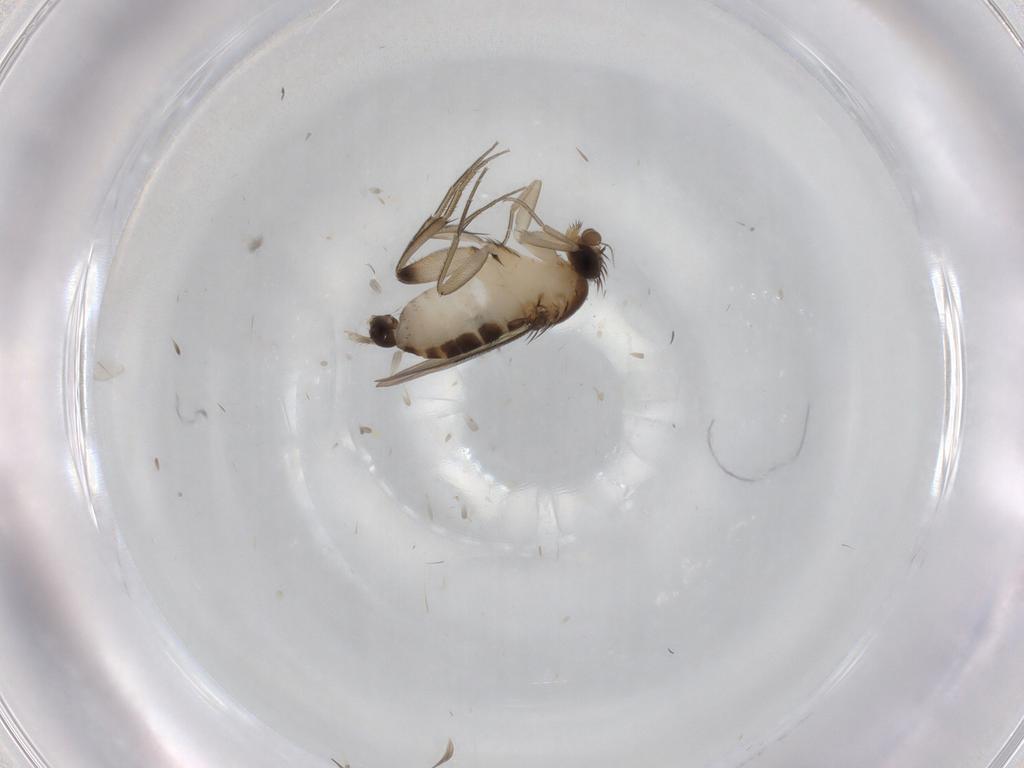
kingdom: Animalia
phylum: Arthropoda
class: Insecta
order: Diptera
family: Phoridae
